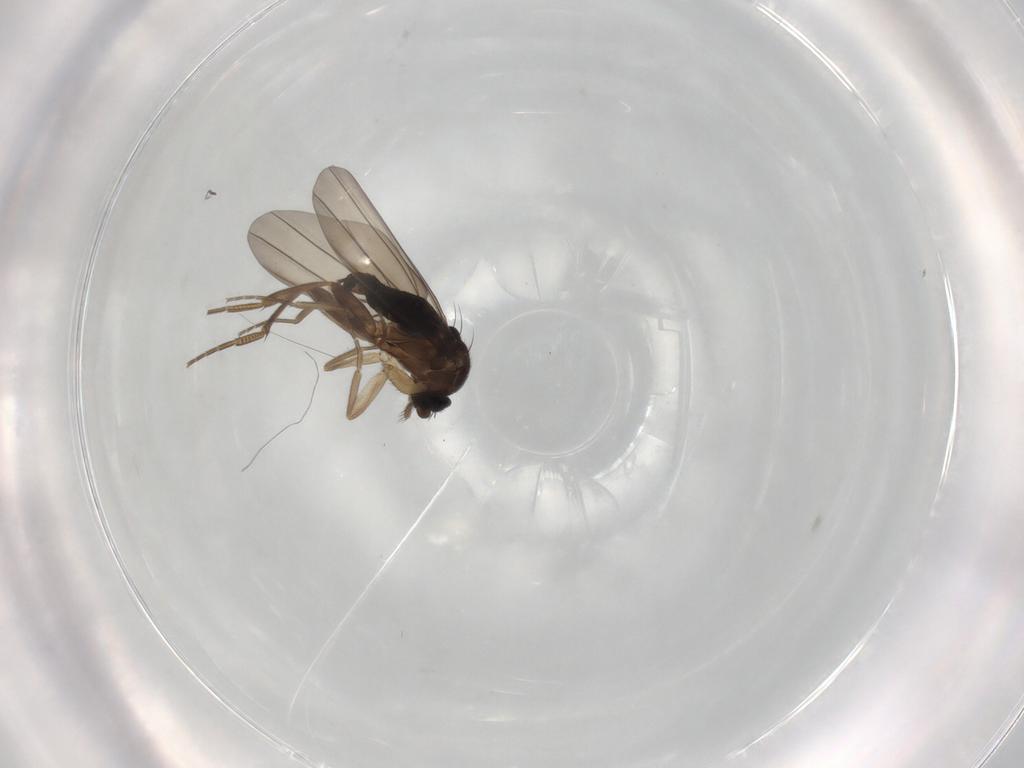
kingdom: Animalia
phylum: Arthropoda
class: Insecta
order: Diptera
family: Phoridae
